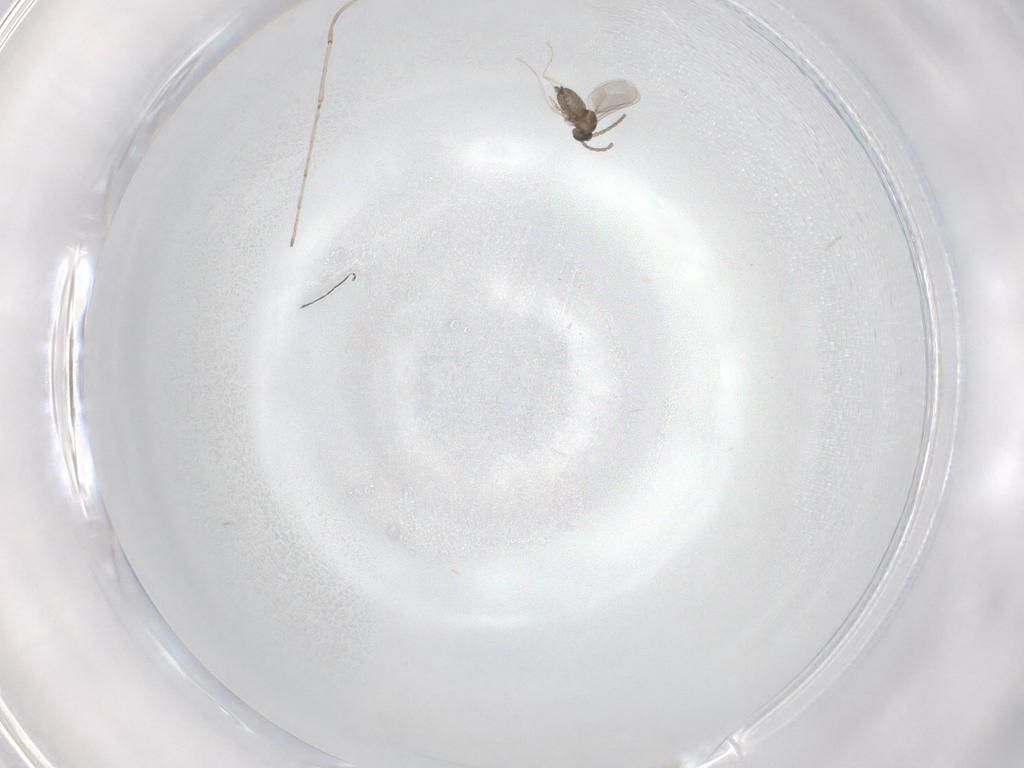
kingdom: Animalia
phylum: Arthropoda
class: Insecta
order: Diptera
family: Cecidomyiidae
